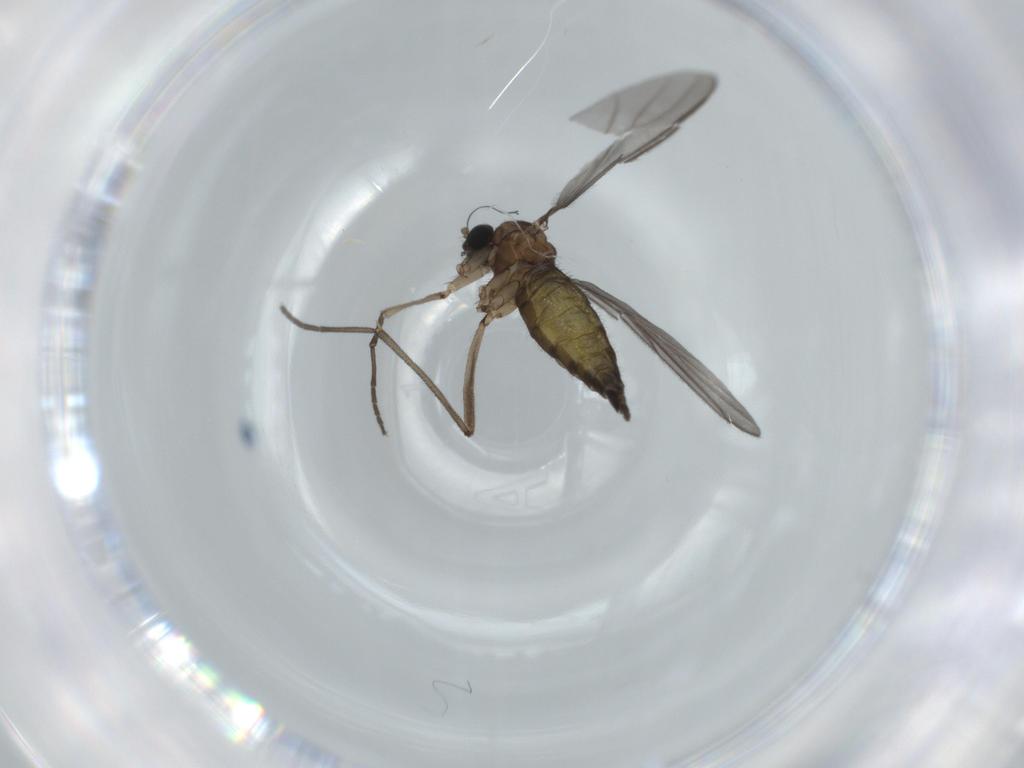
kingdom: Animalia
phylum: Arthropoda
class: Insecta
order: Diptera
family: Sciaridae
